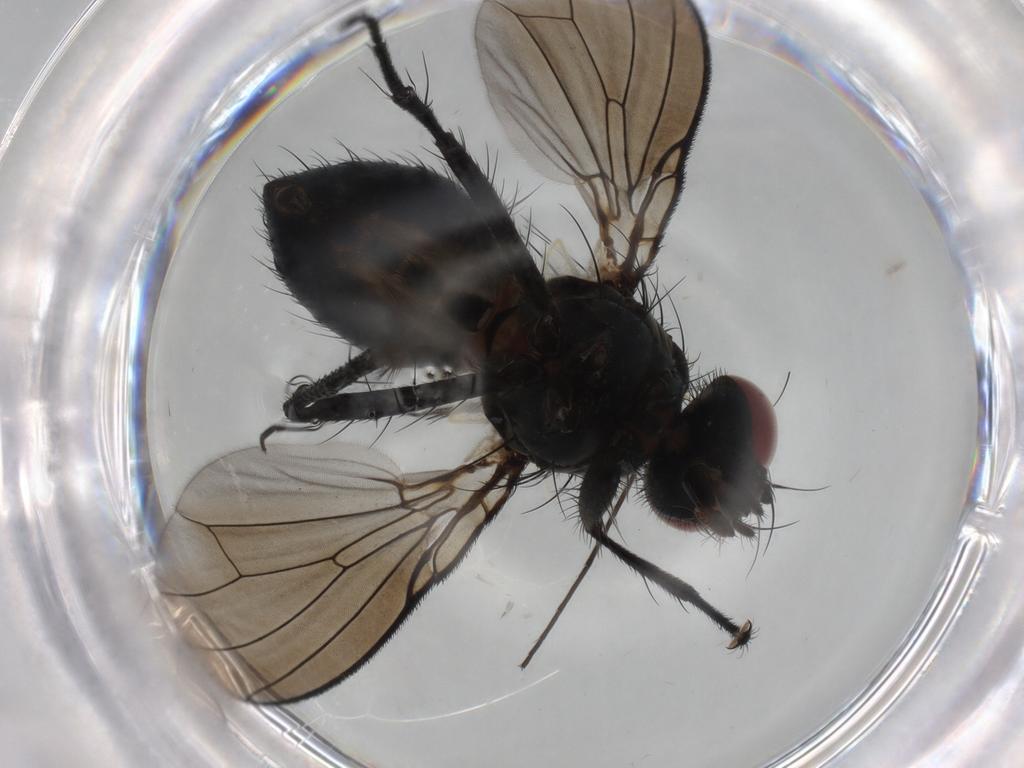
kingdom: Animalia
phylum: Arthropoda
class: Insecta
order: Diptera
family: Muscidae
